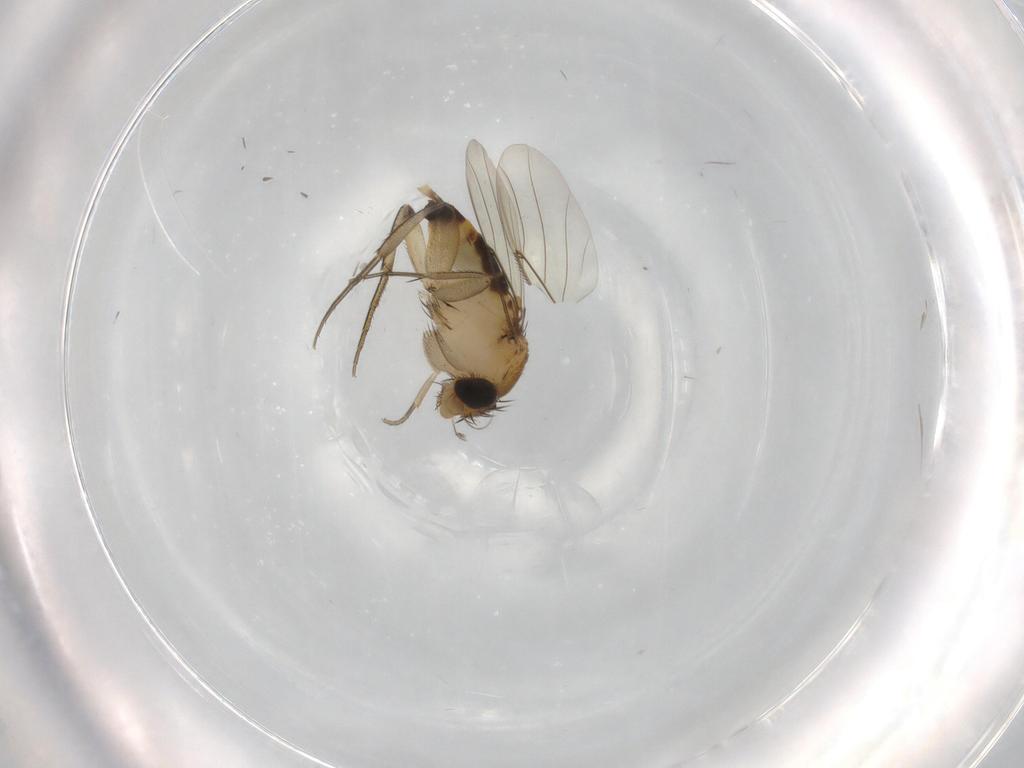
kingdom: Animalia
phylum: Arthropoda
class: Insecta
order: Diptera
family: Phoridae
